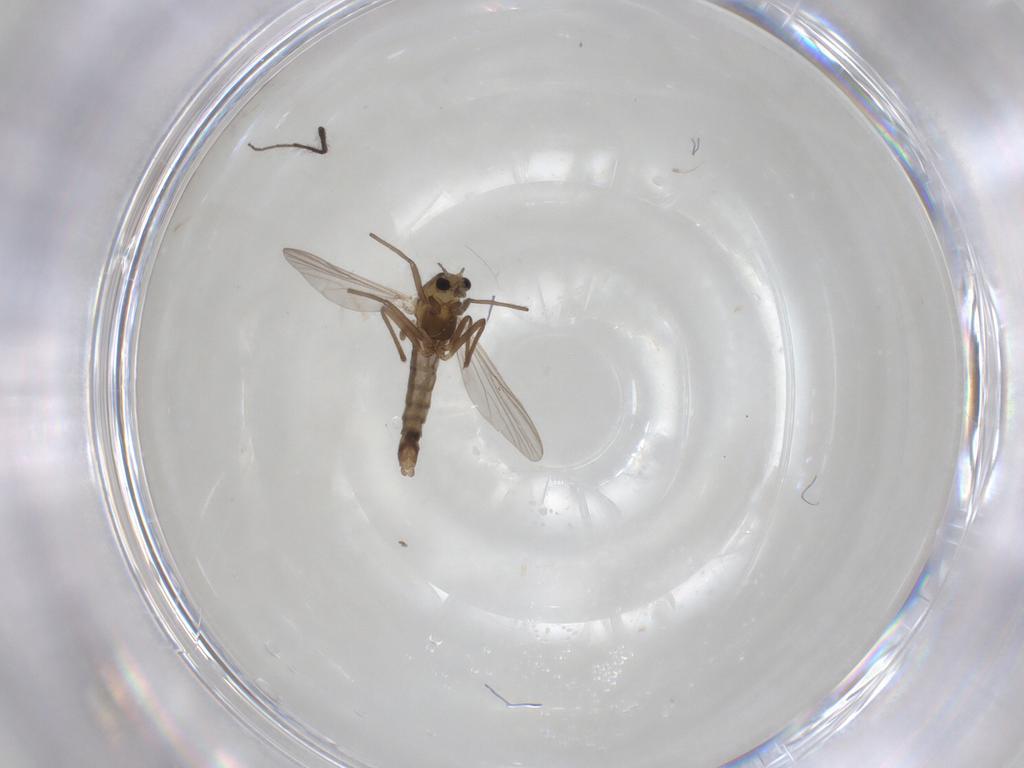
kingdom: Animalia
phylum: Arthropoda
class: Insecta
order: Diptera
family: Chironomidae
